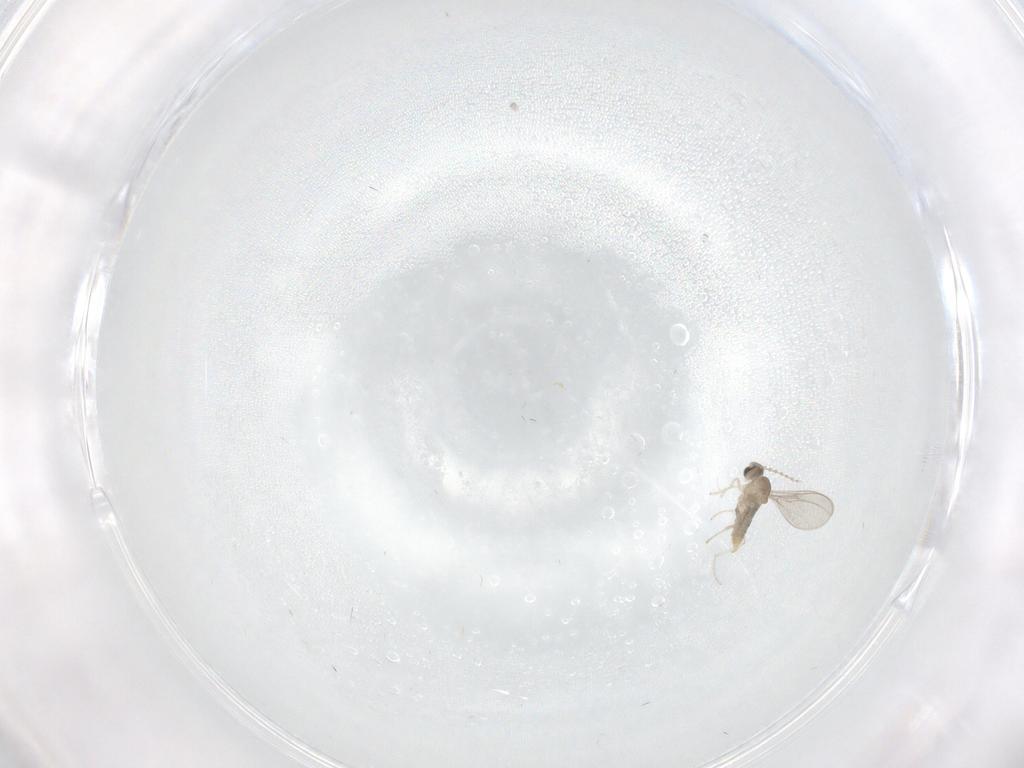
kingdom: Animalia
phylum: Arthropoda
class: Insecta
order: Diptera
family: Cecidomyiidae
